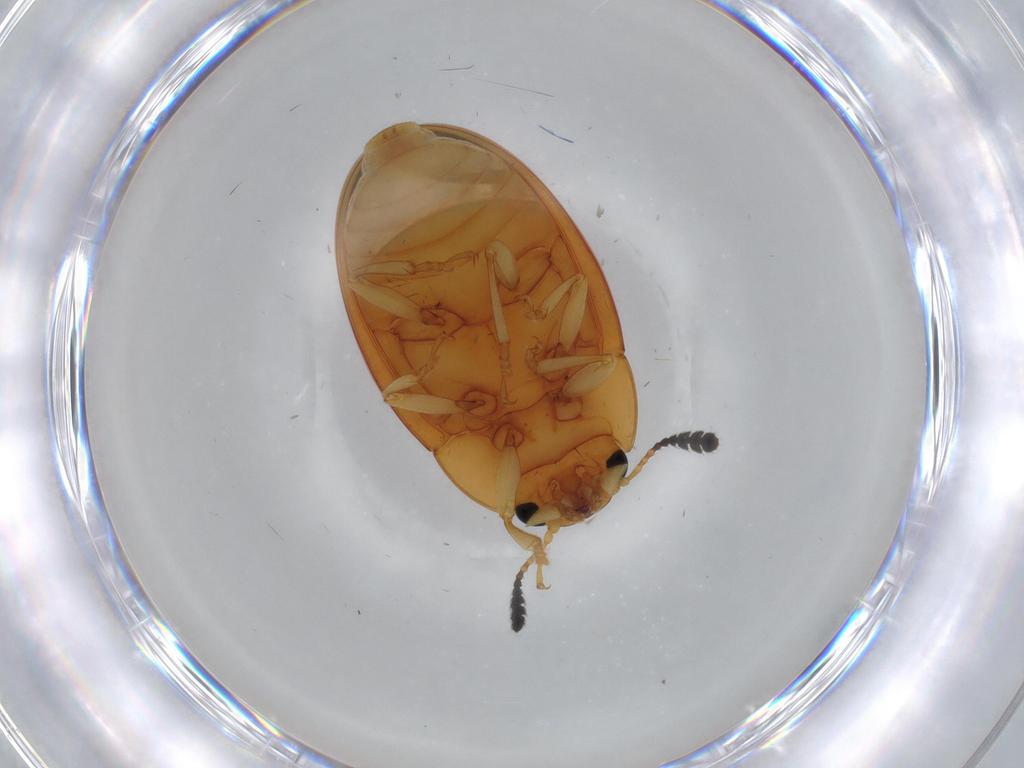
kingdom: Animalia
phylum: Arthropoda
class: Insecta
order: Coleoptera
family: Erotylidae
